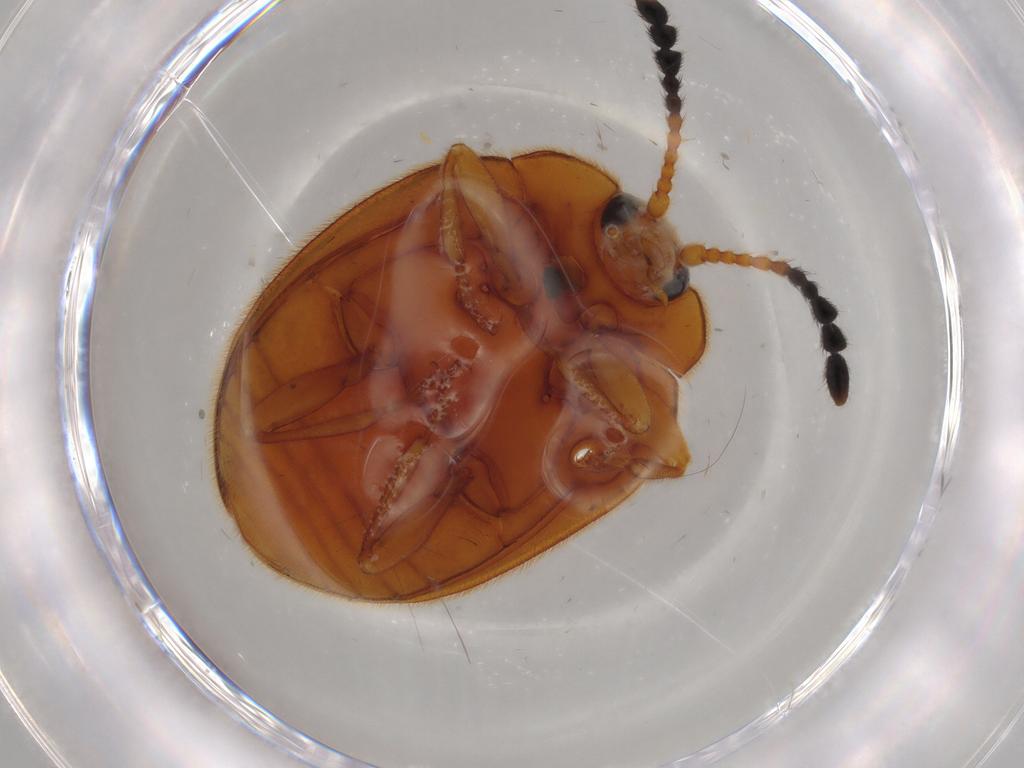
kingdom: Animalia
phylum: Arthropoda
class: Insecta
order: Coleoptera
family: Endomychidae
